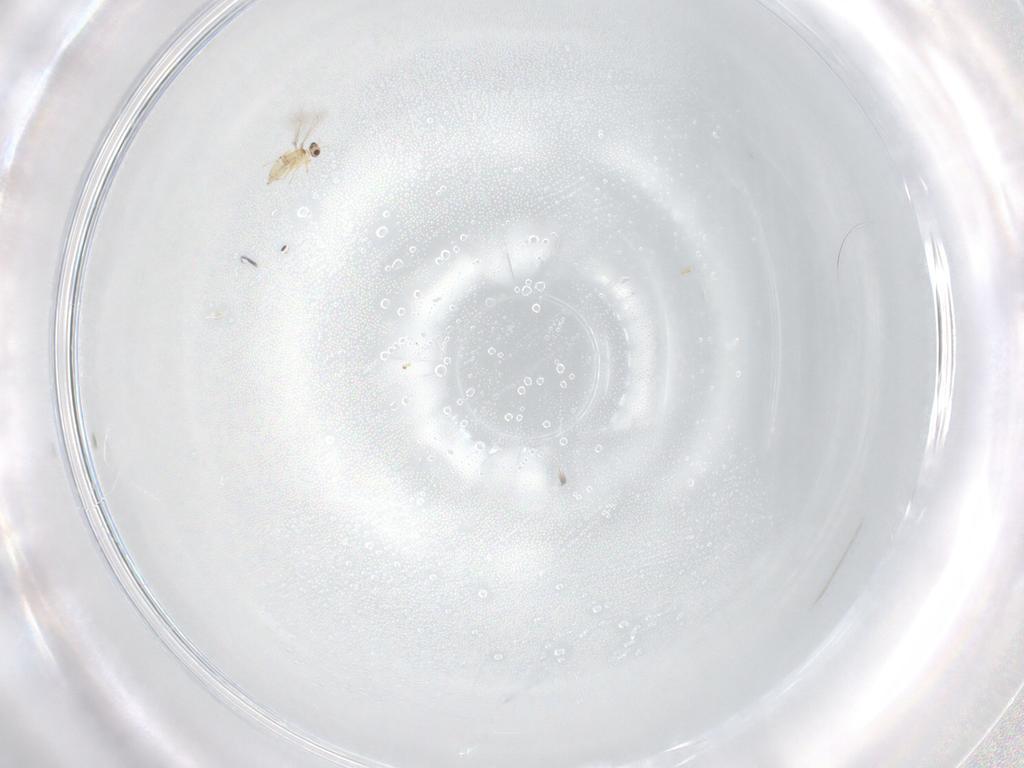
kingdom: Animalia
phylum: Arthropoda
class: Insecta
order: Hymenoptera
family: Mymaridae
